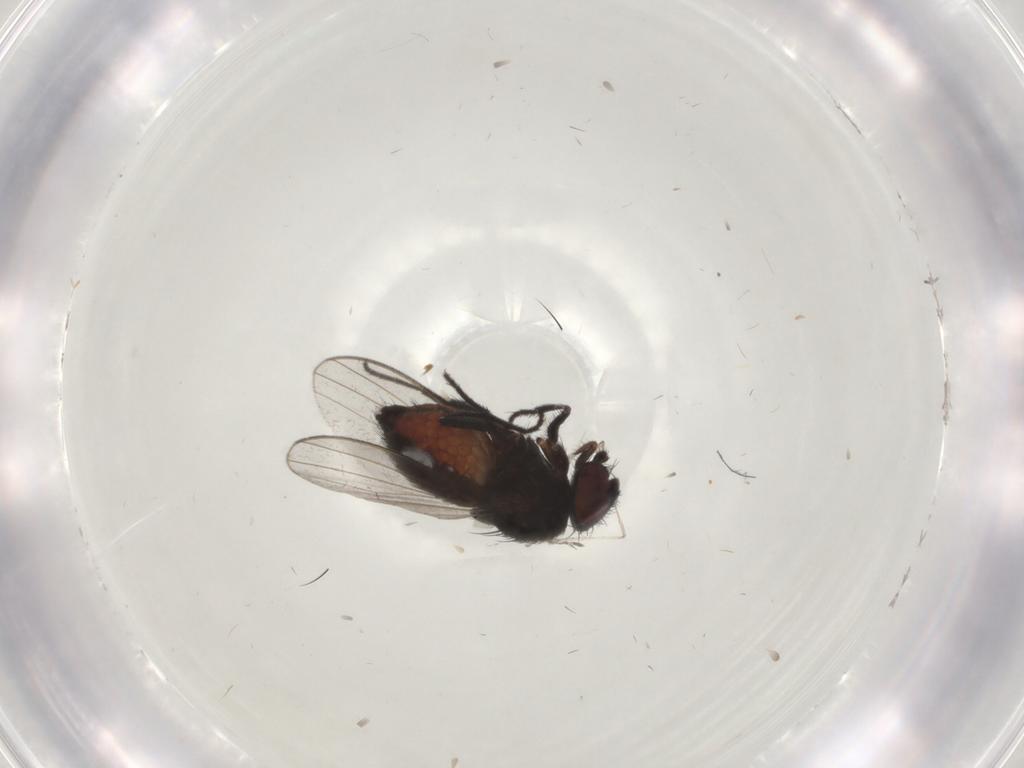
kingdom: Animalia
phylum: Arthropoda
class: Insecta
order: Diptera
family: Milichiidae
